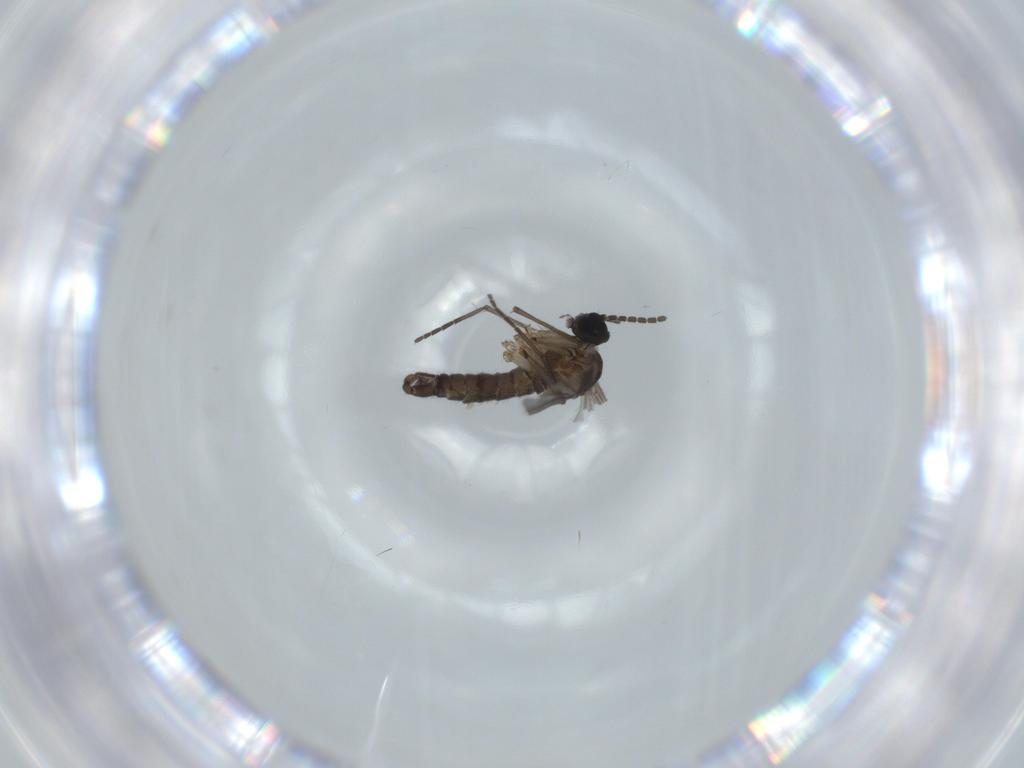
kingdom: Animalia
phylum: Arthropoda
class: Insecta
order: Diptera
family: Sciaridae
